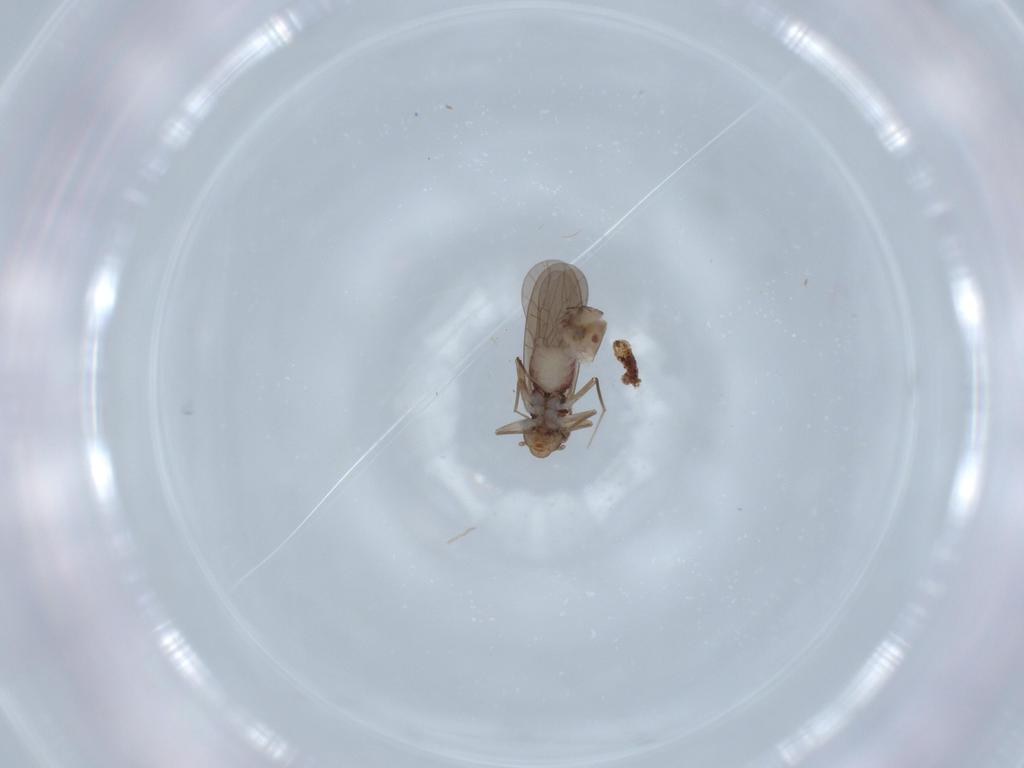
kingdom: Animalia
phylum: Arthropoda
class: Insecta
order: Psocodea
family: Lepidopsocidae
